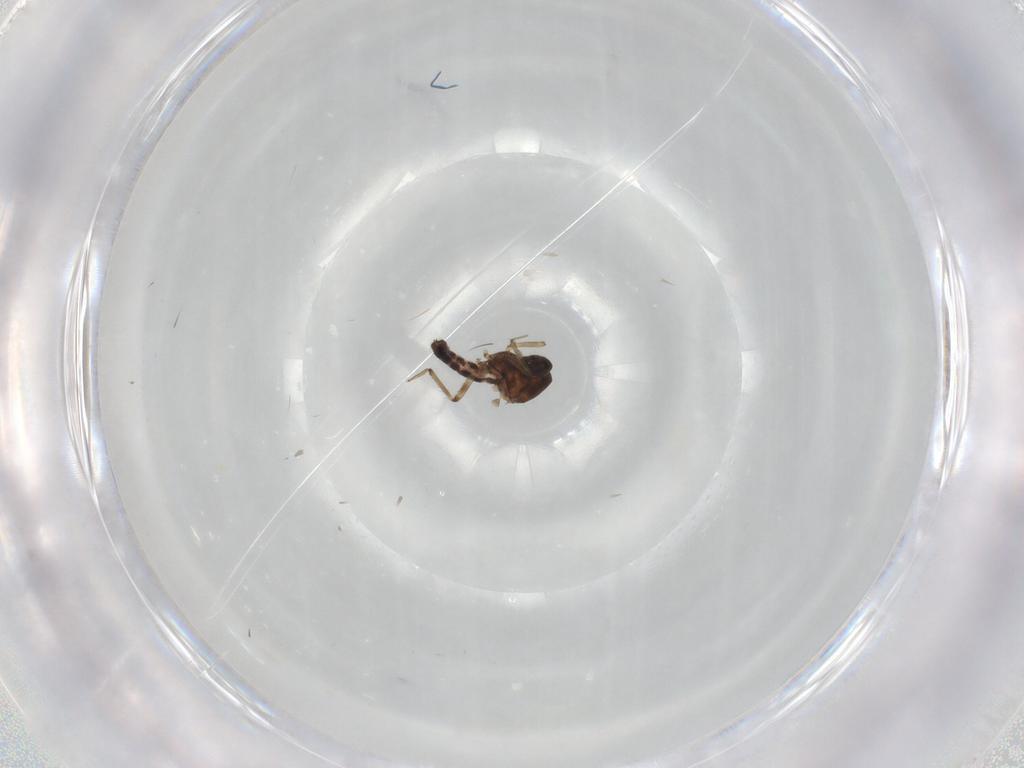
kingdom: Animalia
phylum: Arthropoda
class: Insecta
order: Diptera
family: Ceratopogonidae
